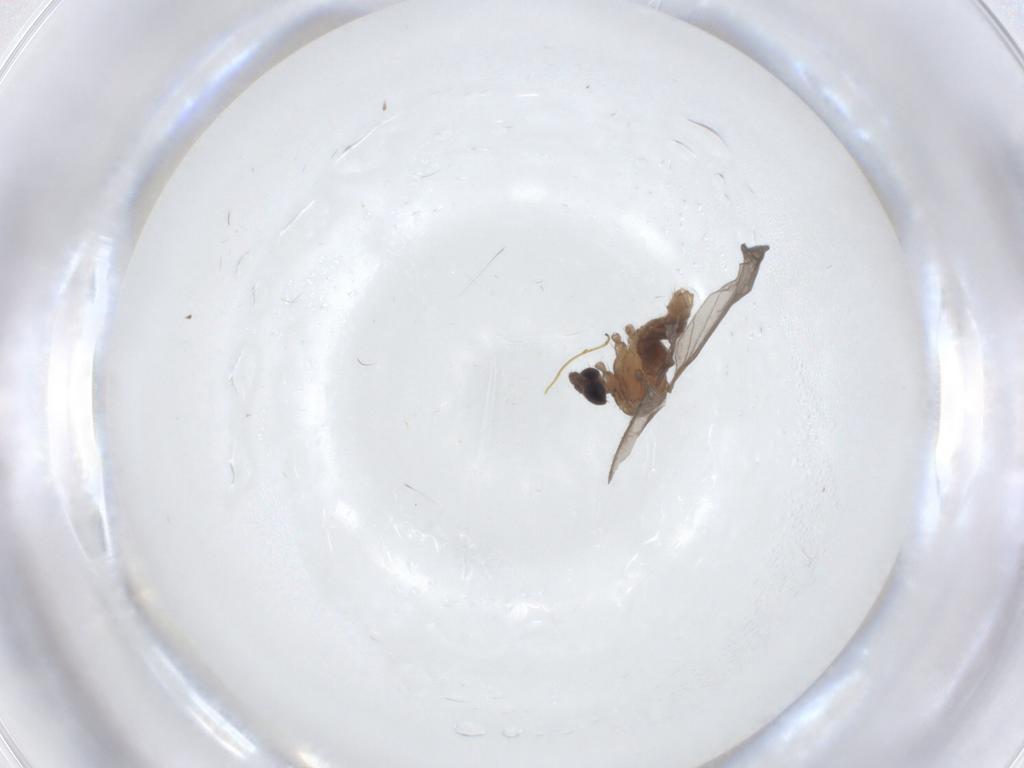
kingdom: Animalia
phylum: Arthropoda
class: Insecta
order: Diptera
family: Limoniidae
